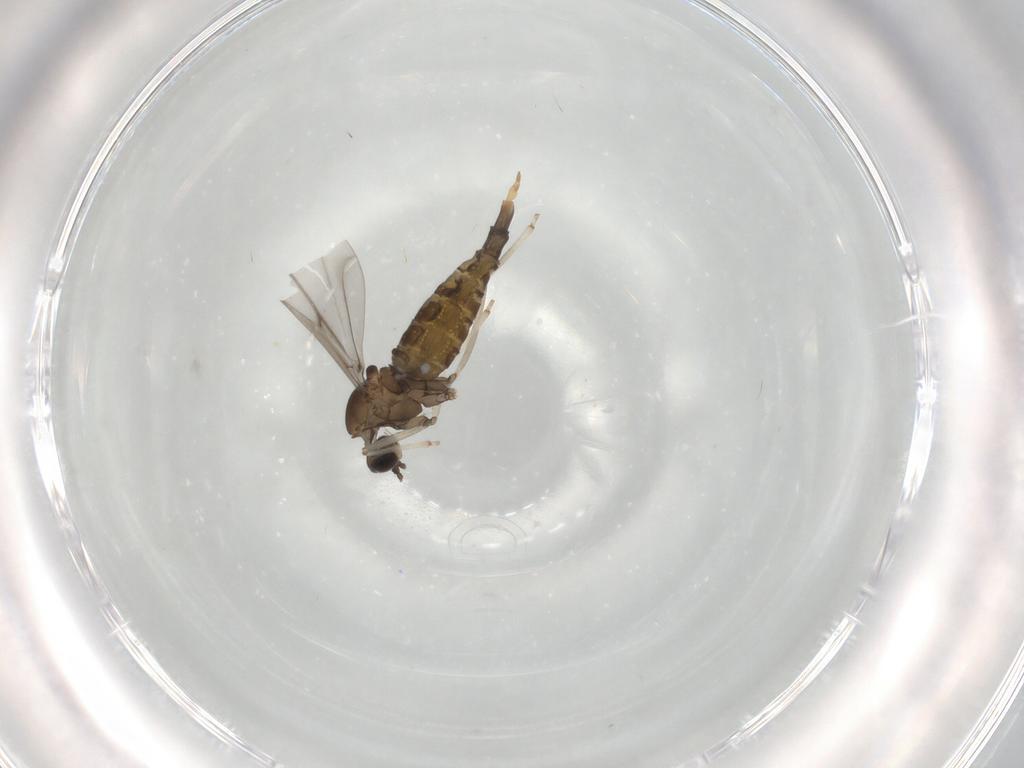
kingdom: Animalia
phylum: Arthropoda
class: Insecta
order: Diptera
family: Cecidomyiidae
